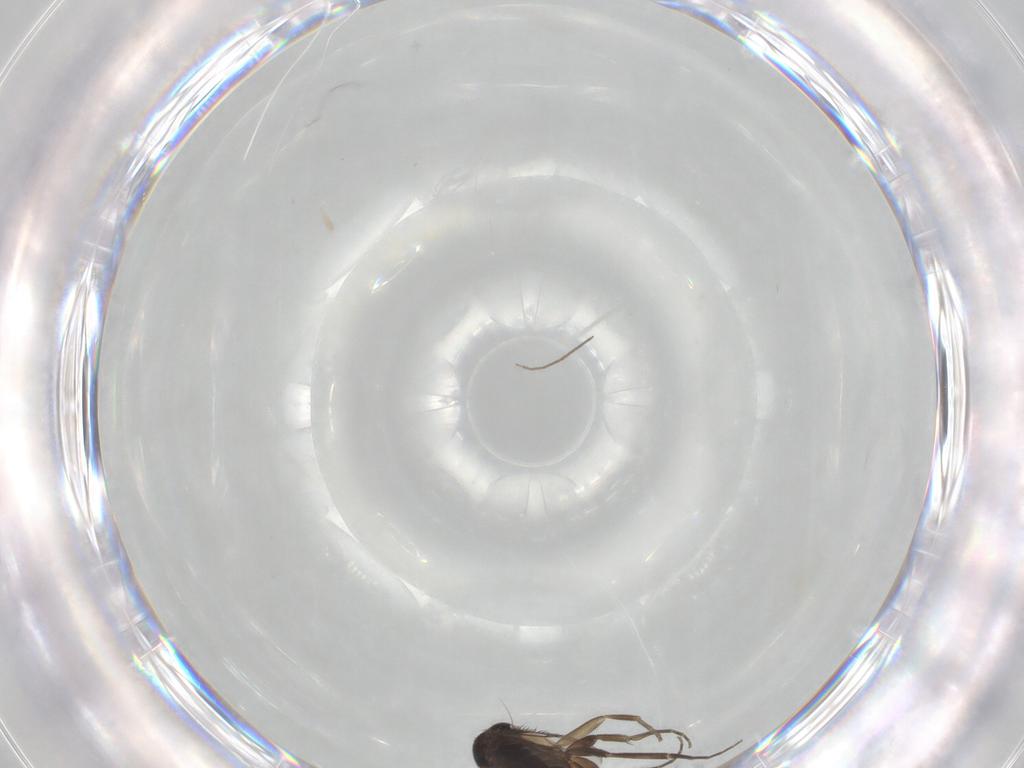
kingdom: Animalia
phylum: Arthropoda
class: Insecta
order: Diptera
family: Phoridae
